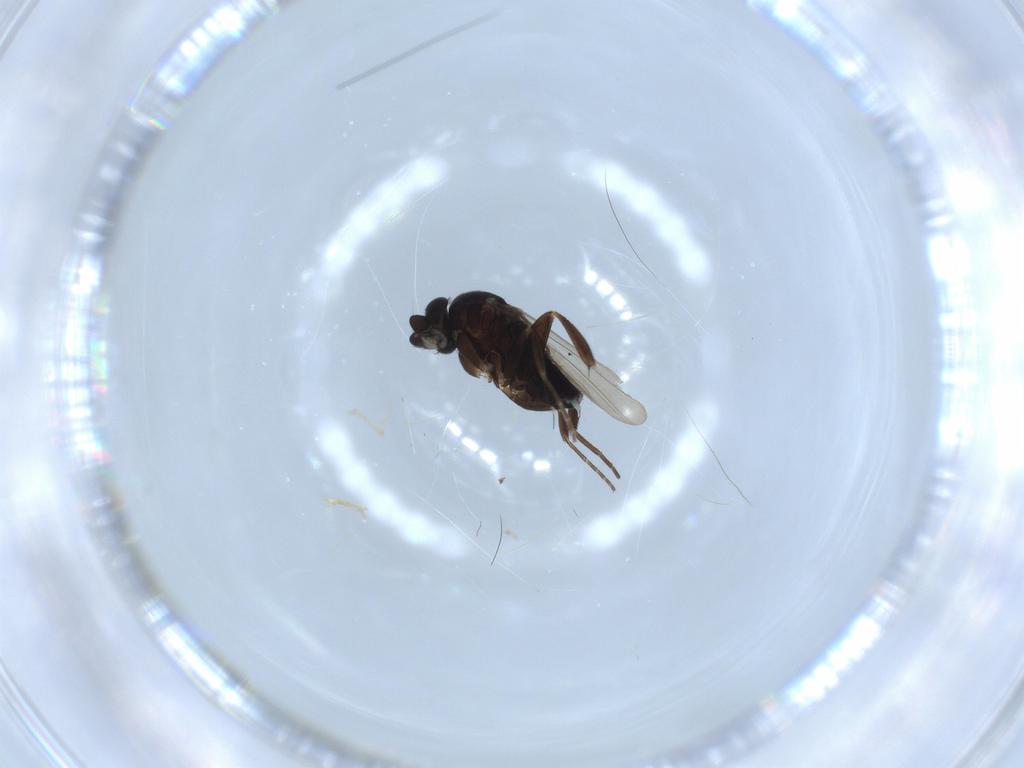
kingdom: Animalia
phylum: Arthropoda
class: Insecta
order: Diptera
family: Phoridae
